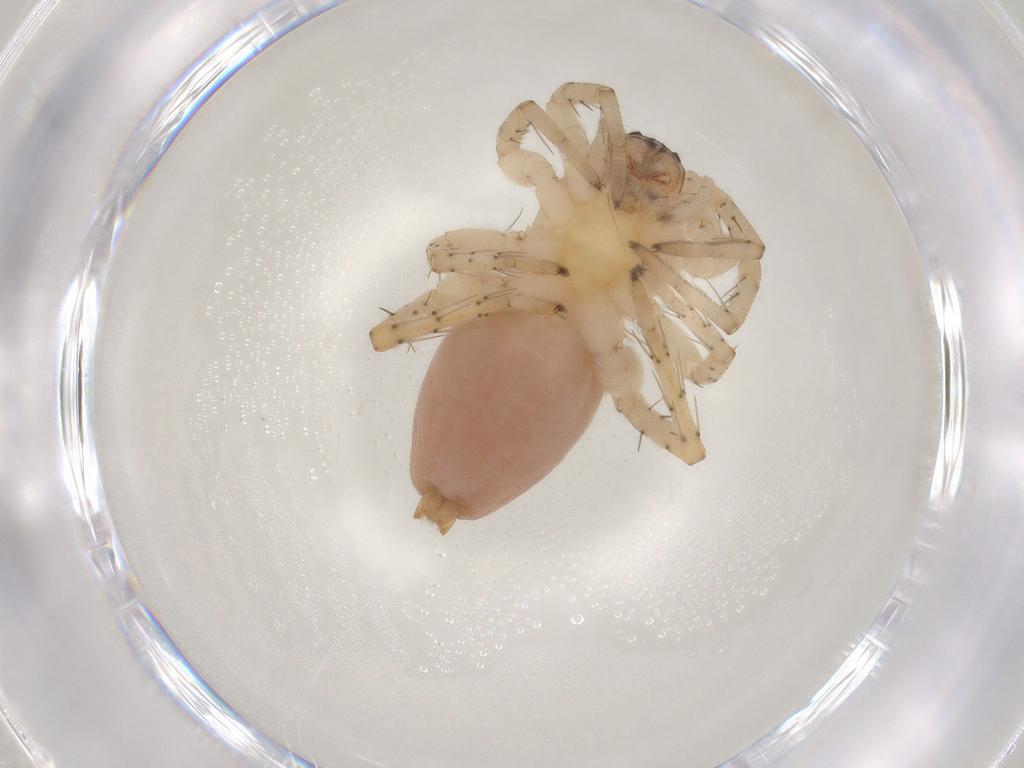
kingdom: Animalia
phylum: Arthropoda
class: Arachnida
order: Araneae
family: Clubionidae
